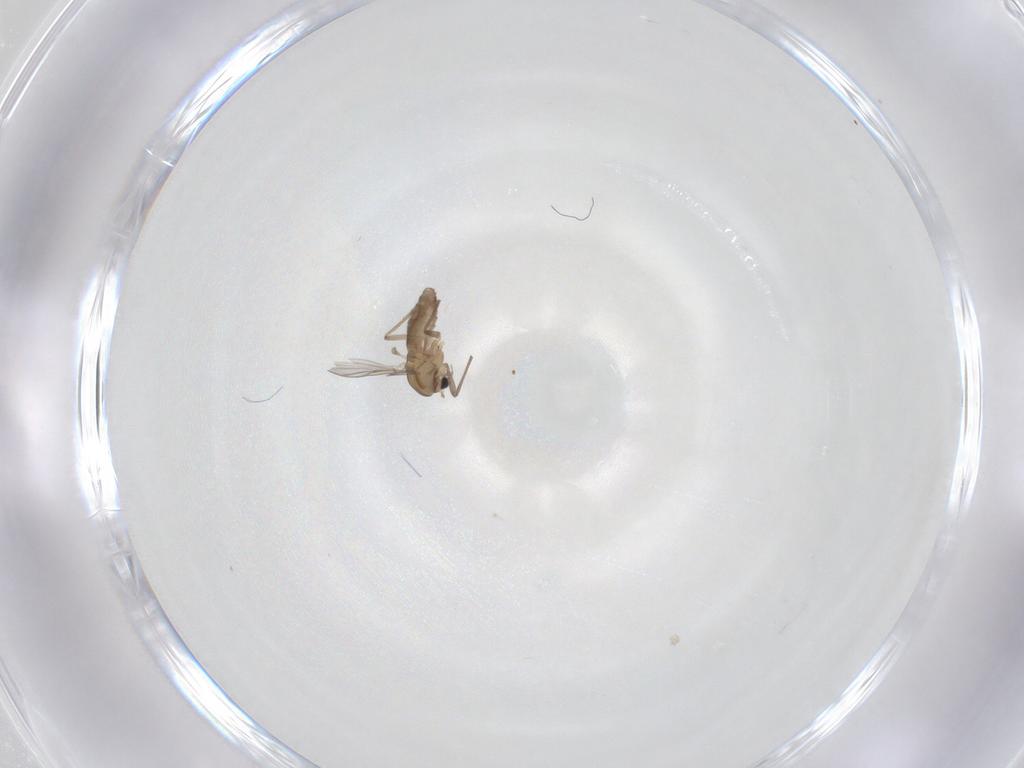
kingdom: Animalia
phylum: Arthropoda
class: Insecta
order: Diptera
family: Chironomidae
